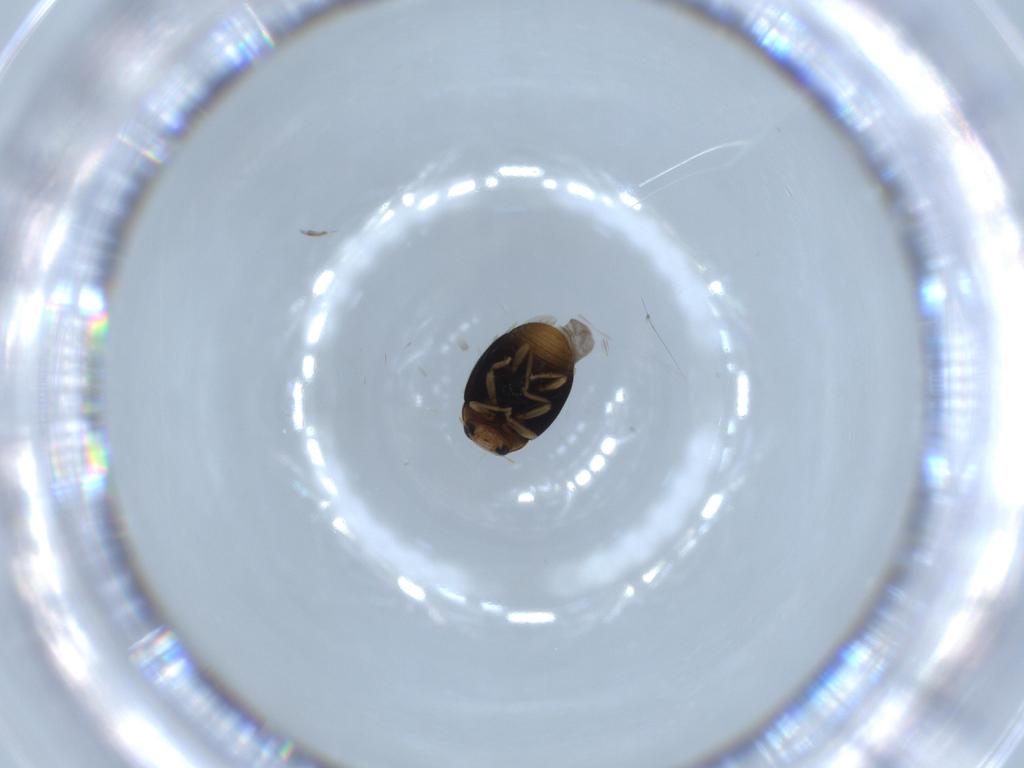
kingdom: Animalia
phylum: Arthropoda
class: Insecta
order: Coleoptera
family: Coccinellidae
